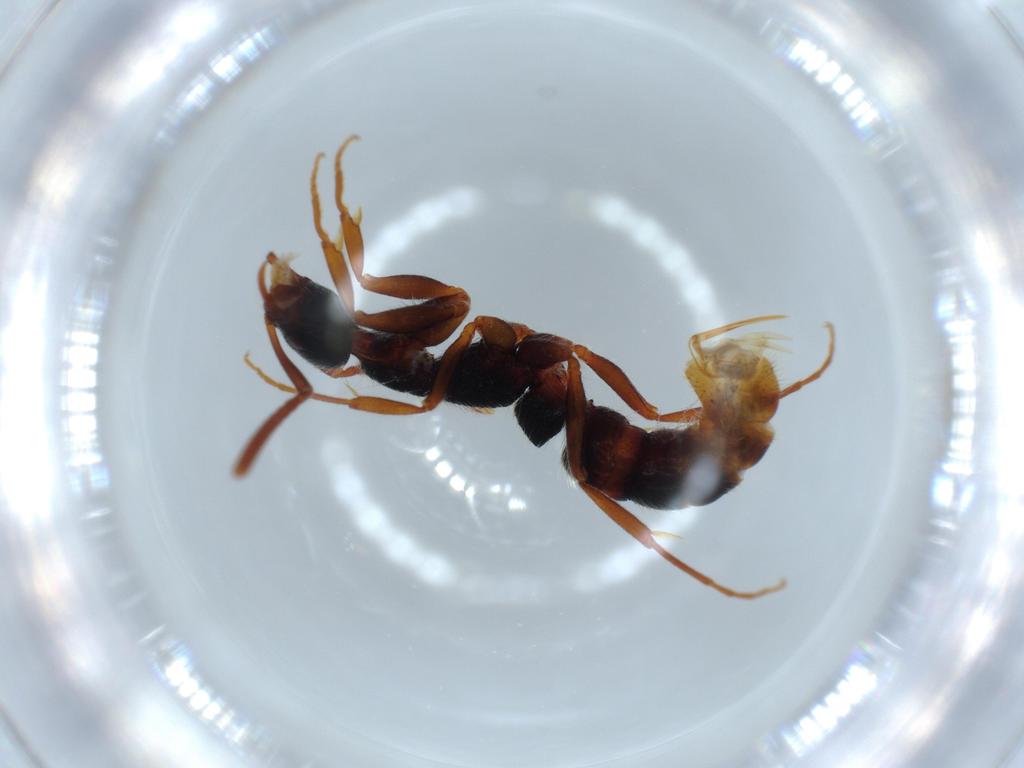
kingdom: Animalia
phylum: Arthropoda
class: Insecta
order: Hymenoptera
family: Formicidae
